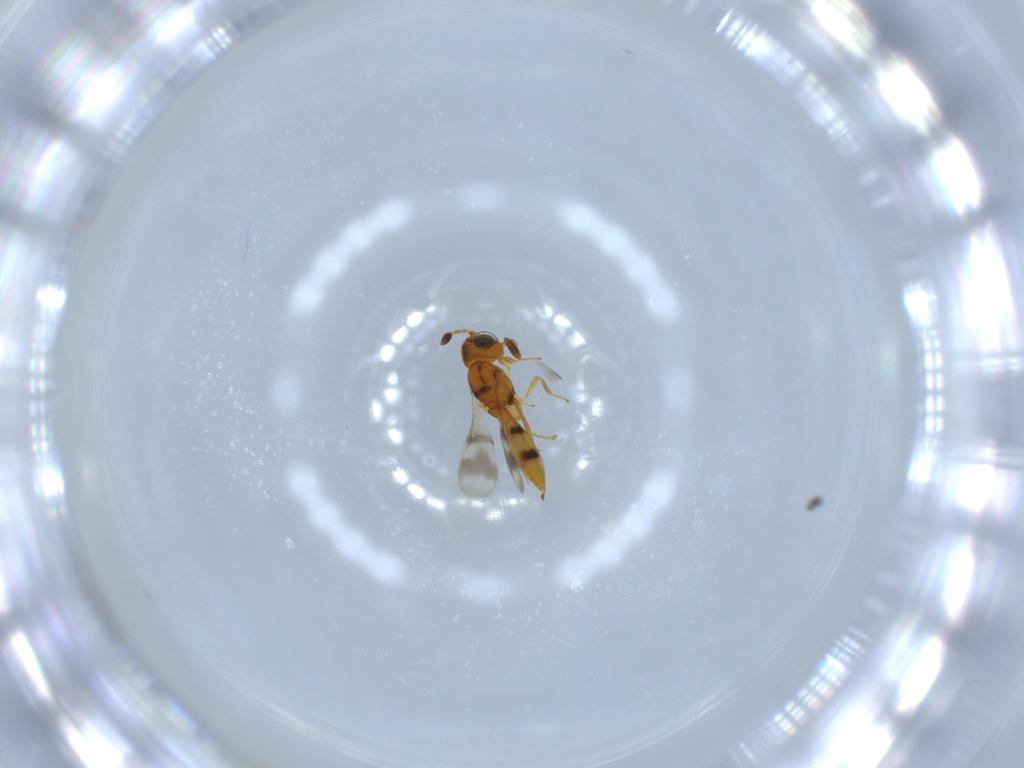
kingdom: Animalia
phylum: Arthropoda
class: Insecta
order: Hymenoptera
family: Scelionidae
